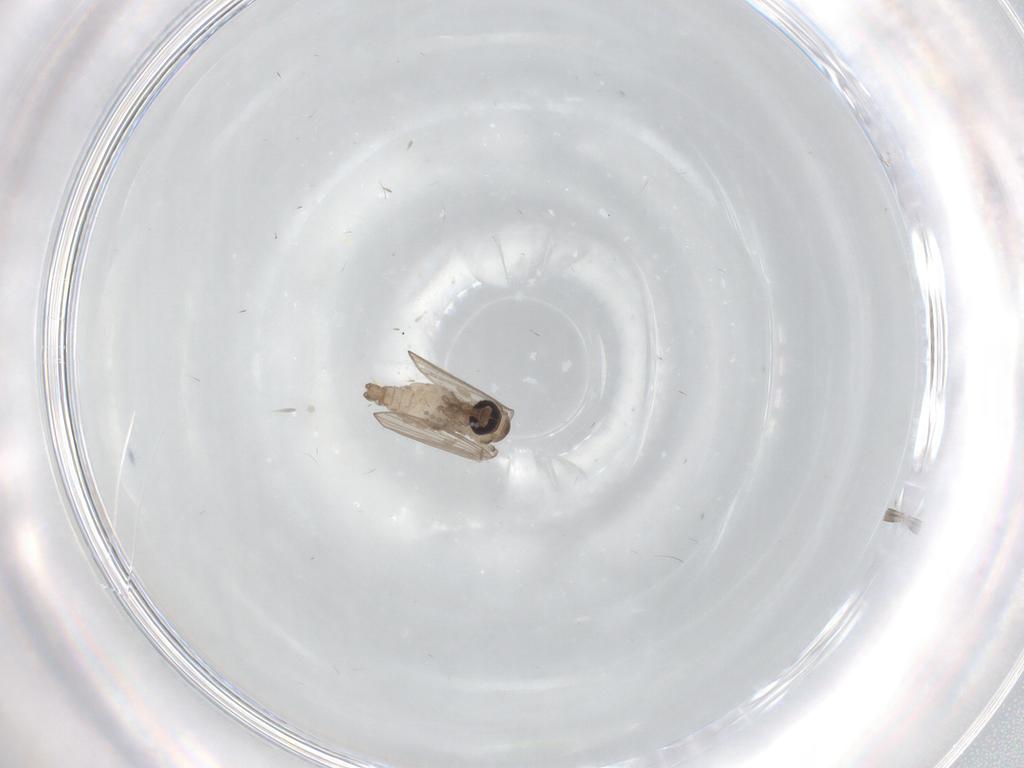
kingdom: Animalia
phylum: Arthropoda
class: Insecta
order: Diptera
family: Psychodidae
